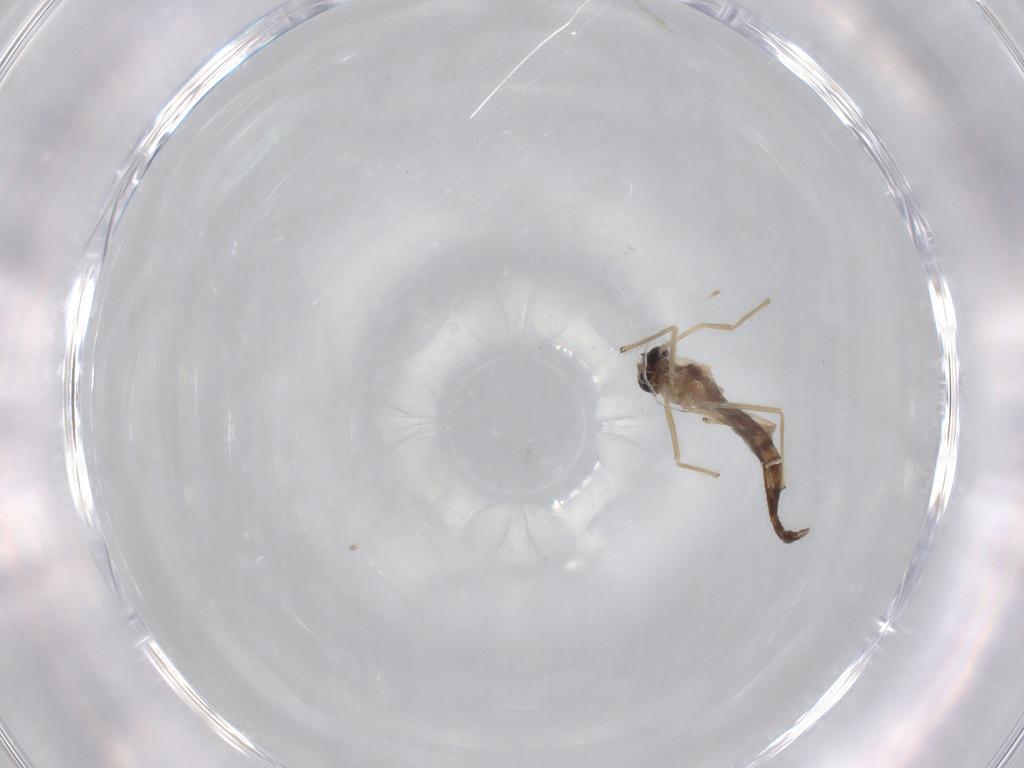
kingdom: Animalia
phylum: Arthropoda
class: Insecta
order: Diptera
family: Chironomidae
